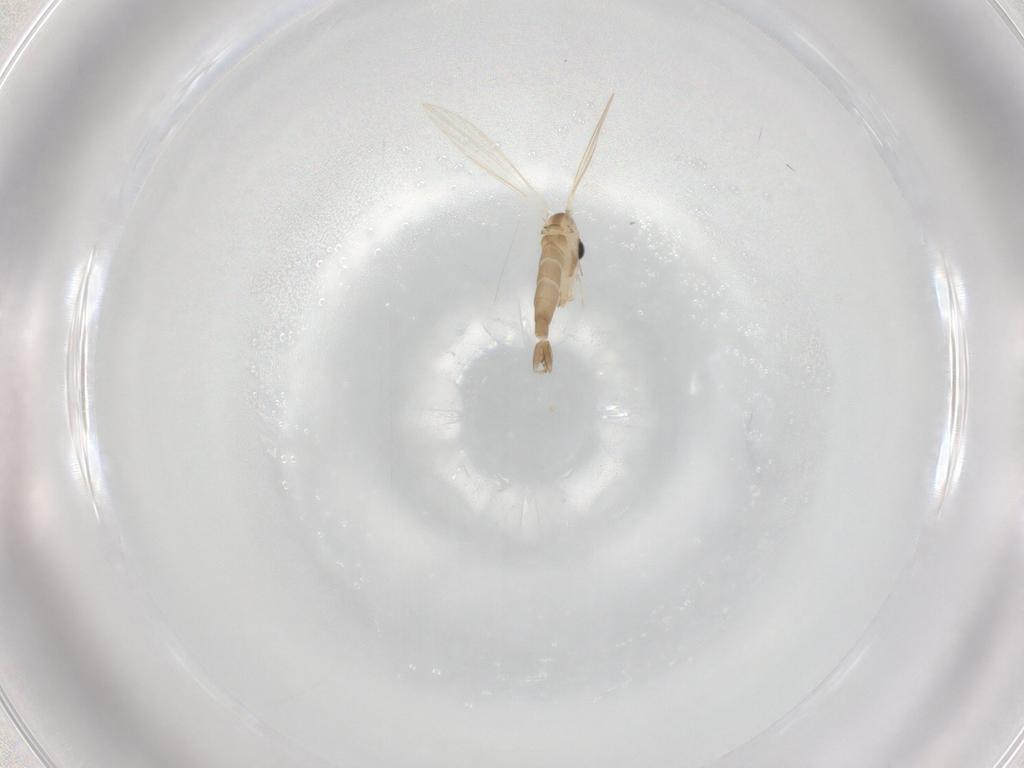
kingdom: Animalia
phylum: Arthropoda
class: Insecta
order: Diptera
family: Psychodidae
